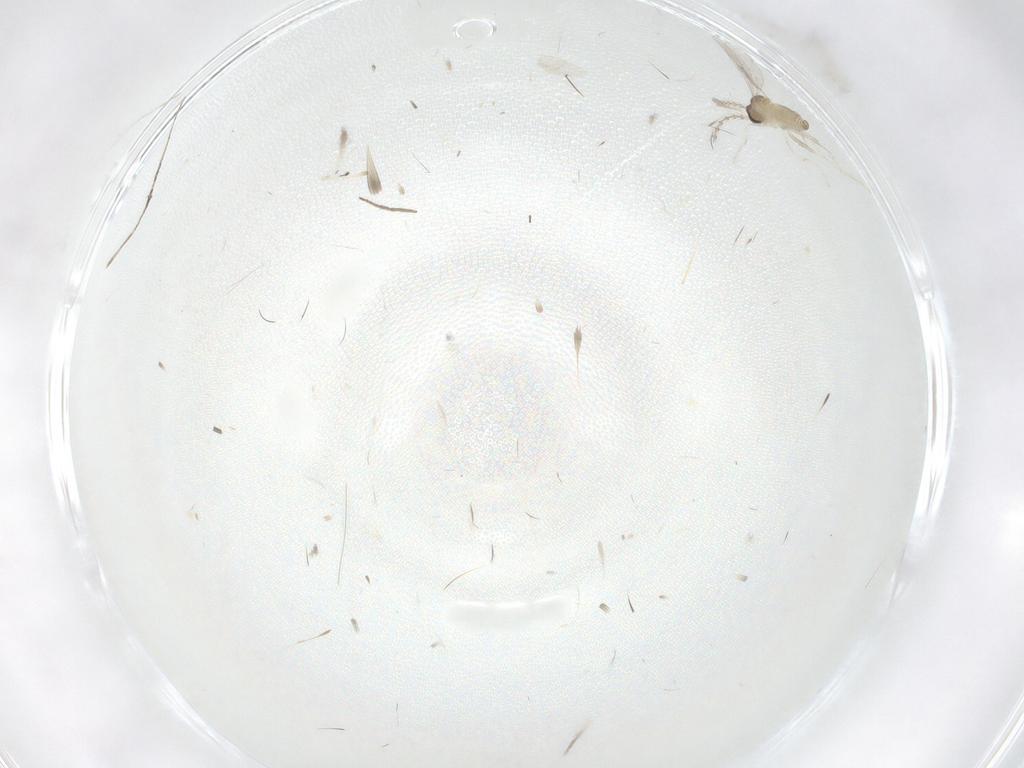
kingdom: Animalia
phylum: Arthropoda
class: Insecta
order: Diptera
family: Cecidomyiidae
